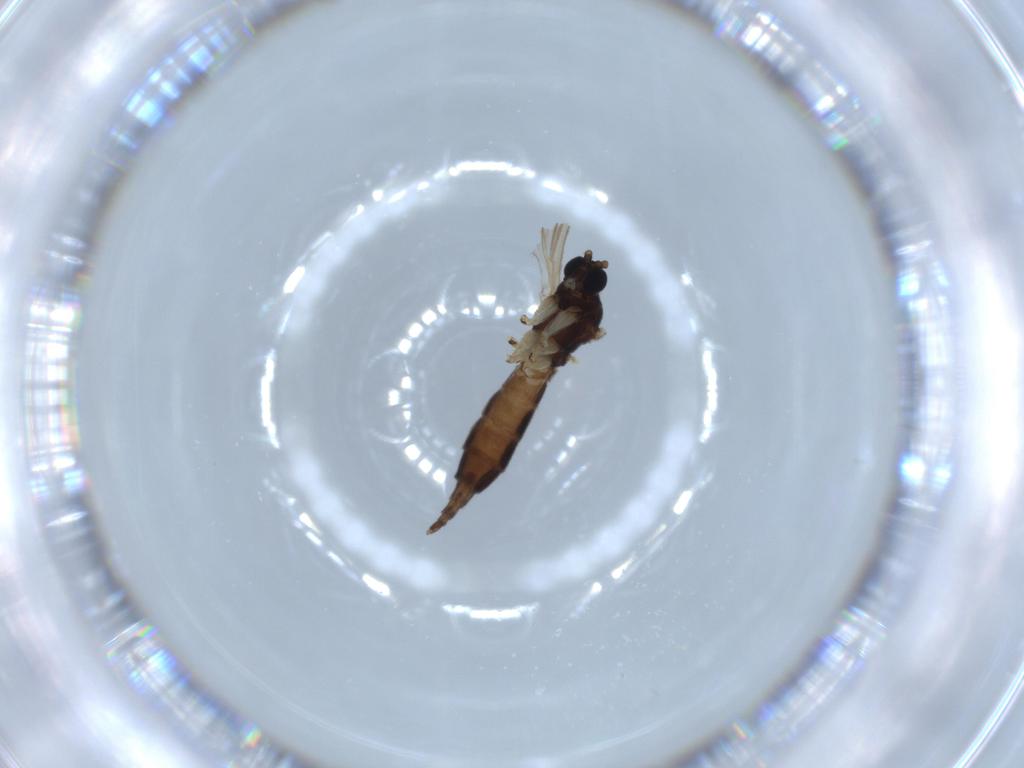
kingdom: Animalia
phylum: Arthropoda
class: Insecta
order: Diptera
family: Sciaridae
